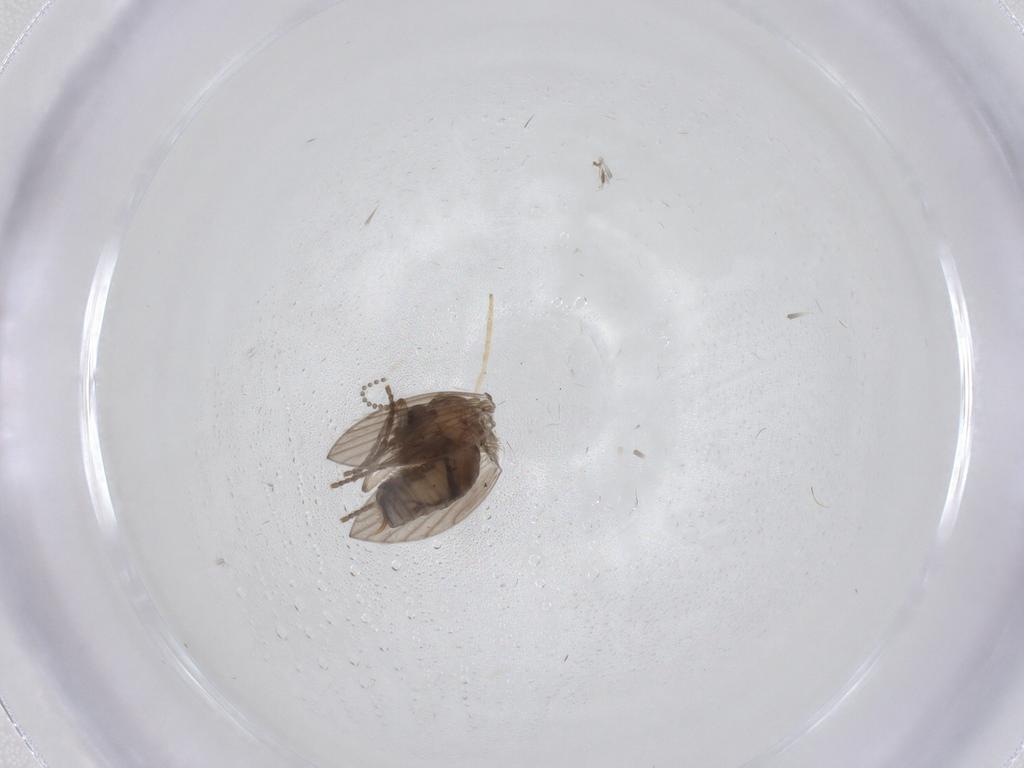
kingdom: Animalia
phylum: Arthropoda
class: Insecta
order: Diptera
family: Psychodidae
